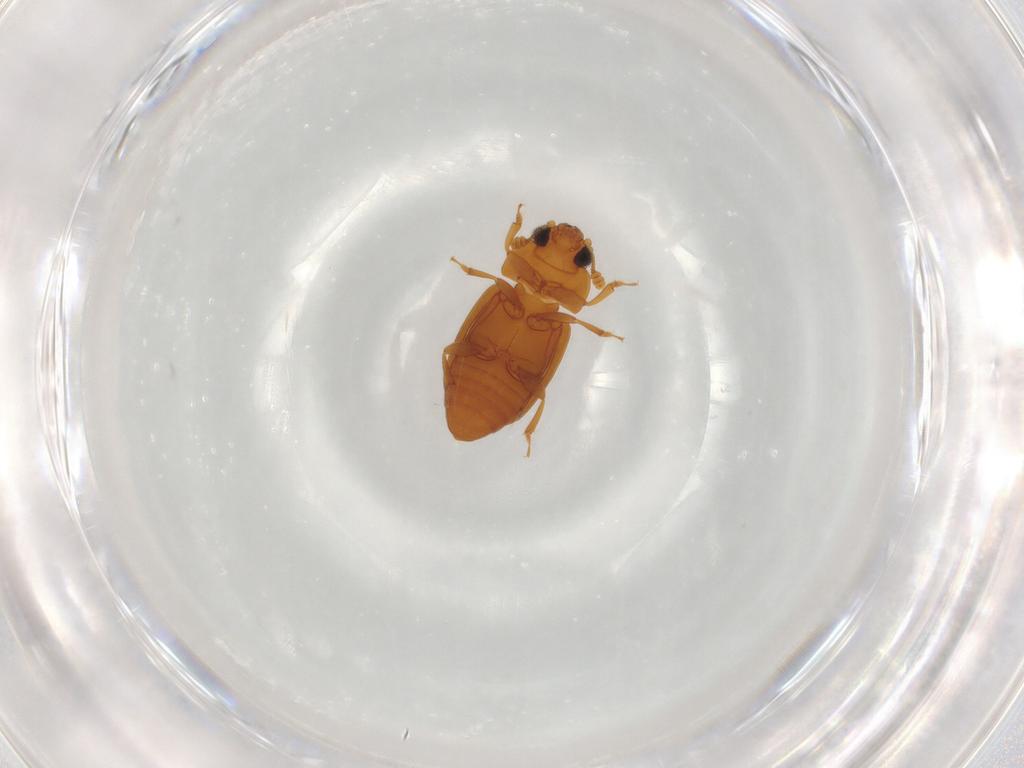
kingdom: Animalia
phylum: Arthropoda
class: Insecta
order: Coleoptera
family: Nitidulidae
